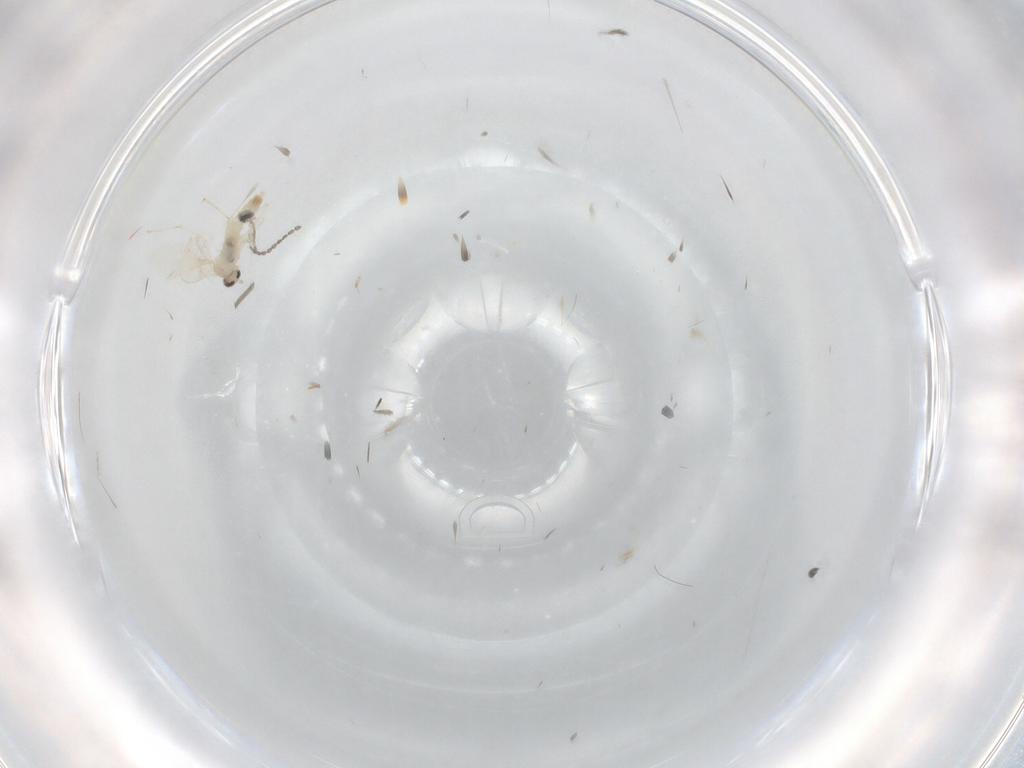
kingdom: Animalia
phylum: Arthropoda
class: Insecta
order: Diptera
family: Cecidomyiidae
